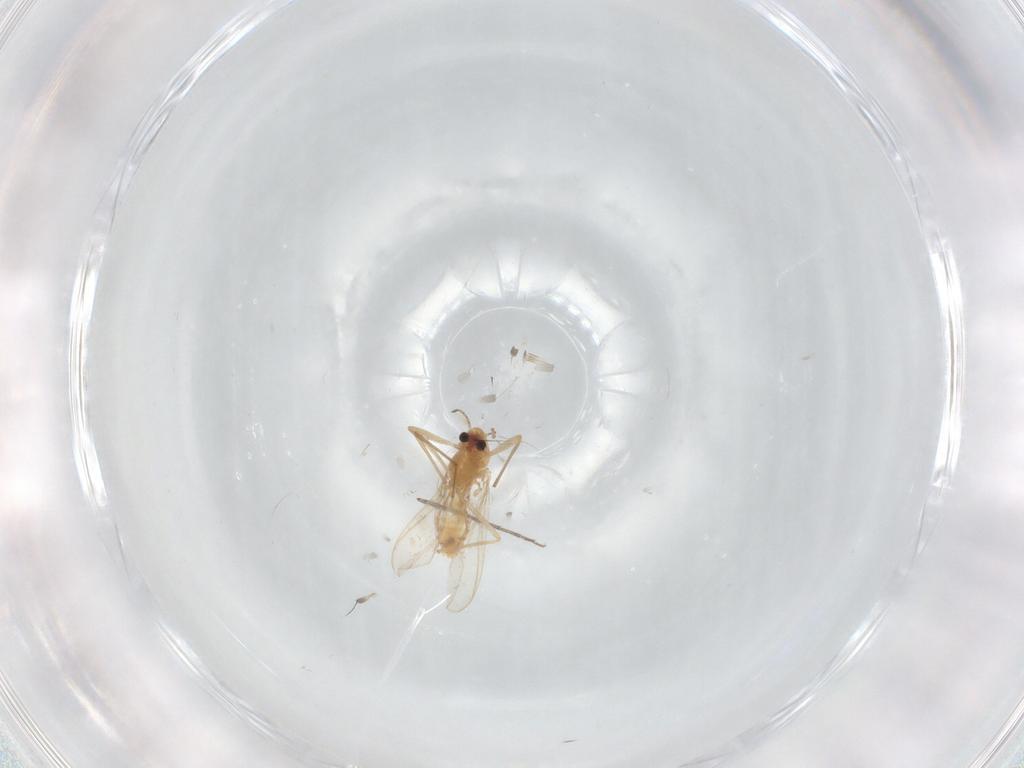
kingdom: Animalia
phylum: Arthropoda
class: Insecta
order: Diptera
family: Chironomidae
